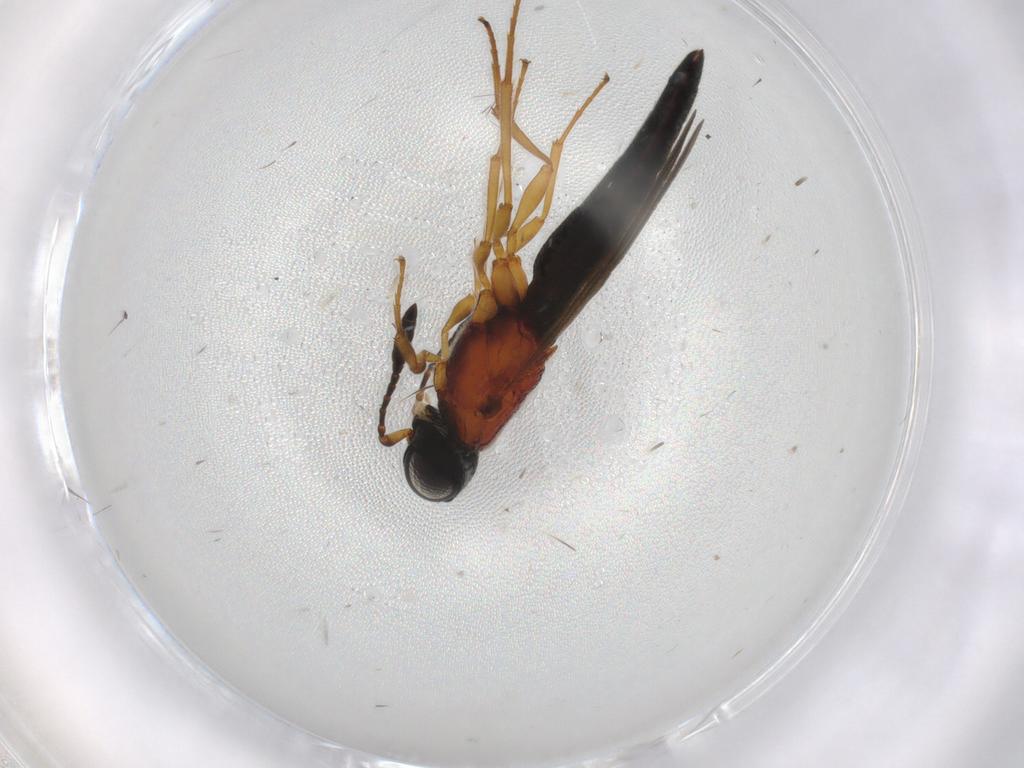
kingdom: Animalia
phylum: Arthropoda
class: Insecta
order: Hymenoptera
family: Formicidae
